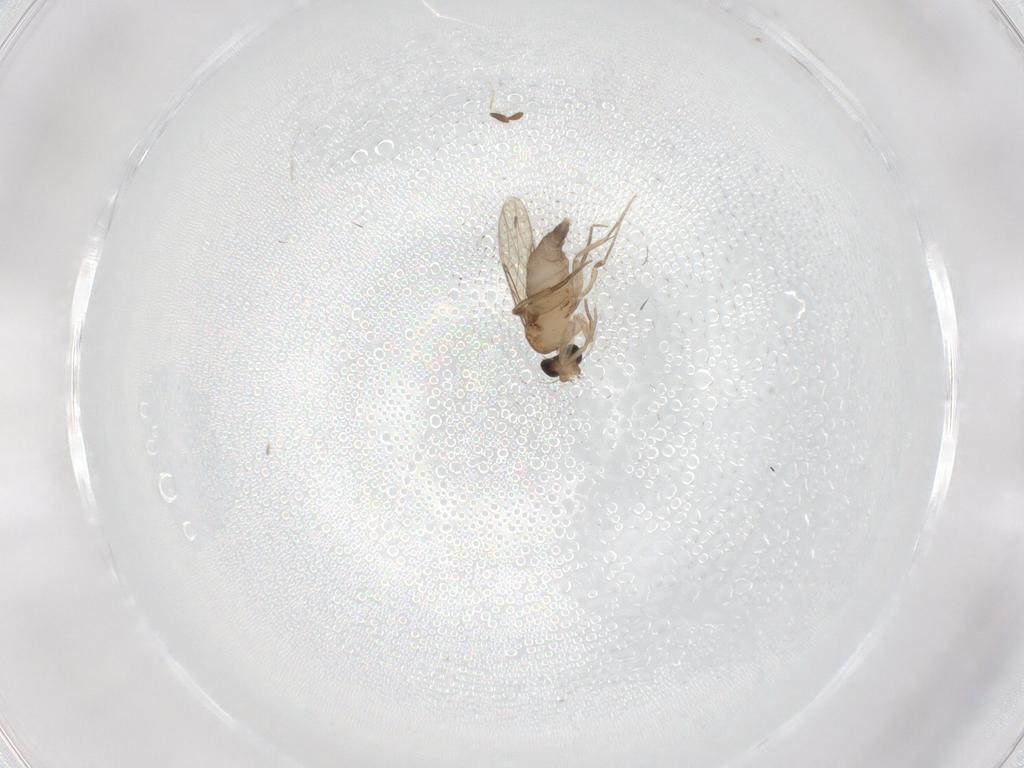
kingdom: Animalia
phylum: Arthropoda
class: Insecta
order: Diptera
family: Phoridae
